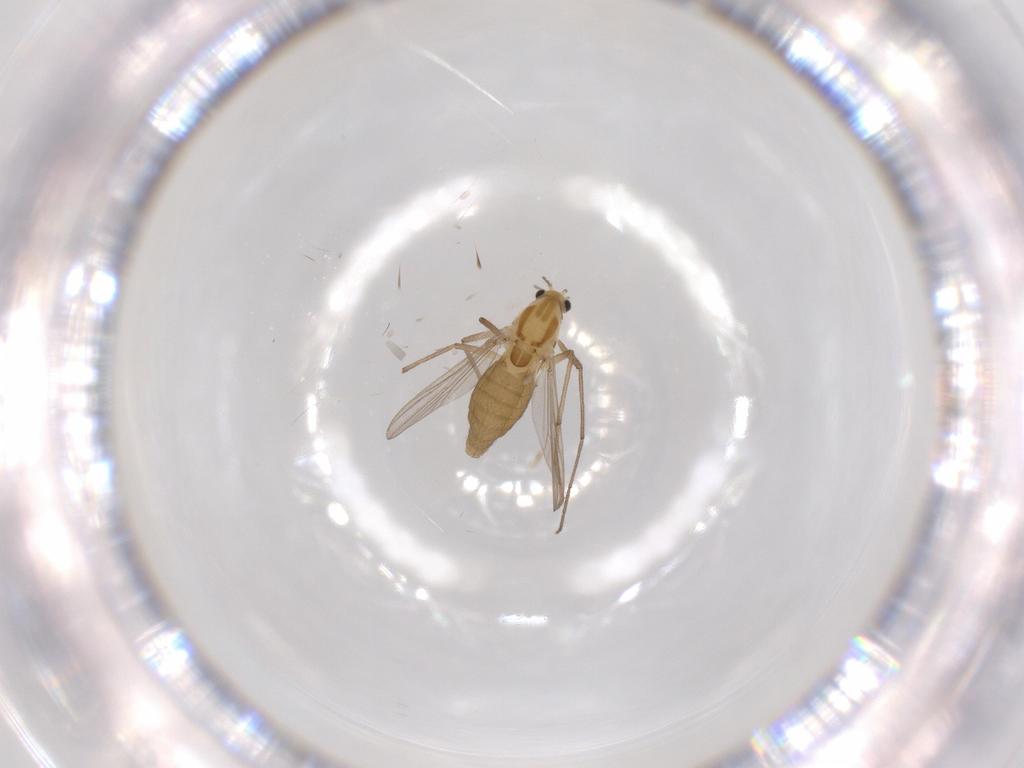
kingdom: Animalia
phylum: Arthropoda
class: Insecta
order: Diptera
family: Chironomidae
